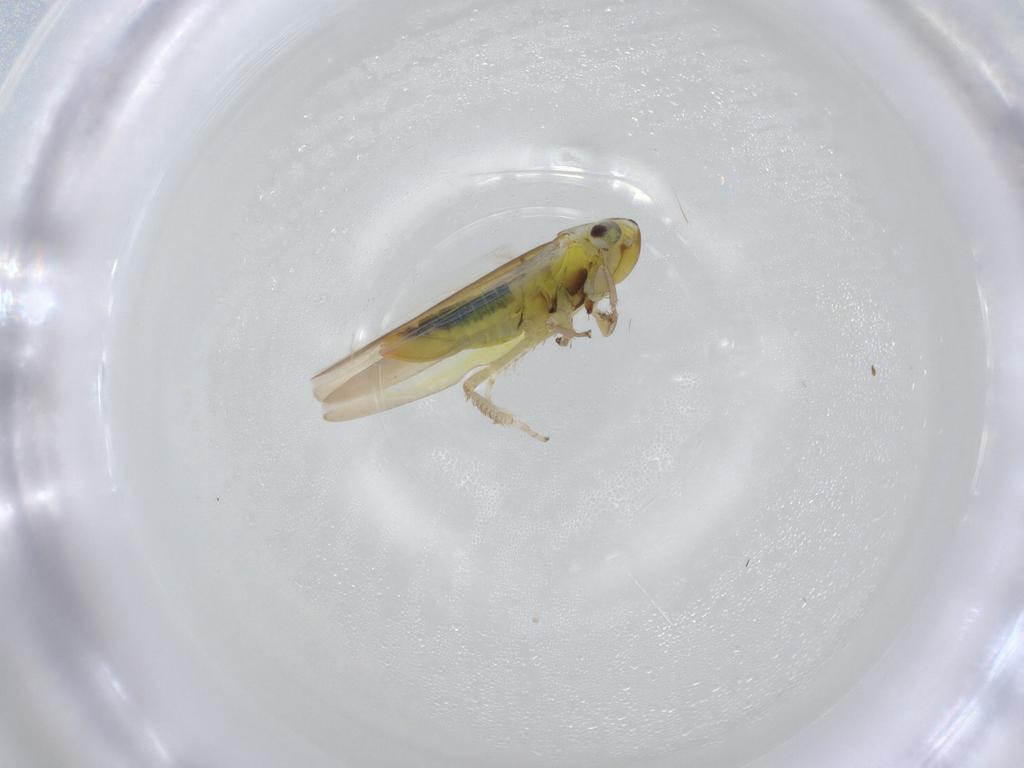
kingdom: Animalia
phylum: Arthropoda
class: Insecta
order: Hemiptera
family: Cicadellidae
